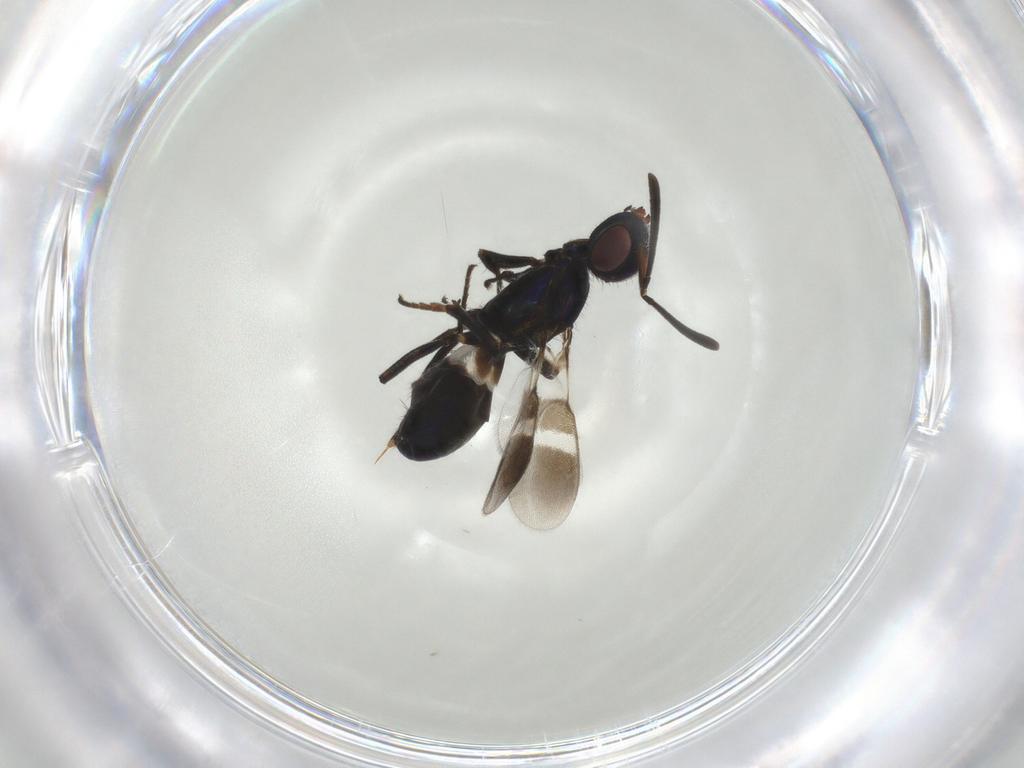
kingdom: Animalia
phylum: Arthropoda
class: Insecta
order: Hymenoptera
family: Eupelmidae
